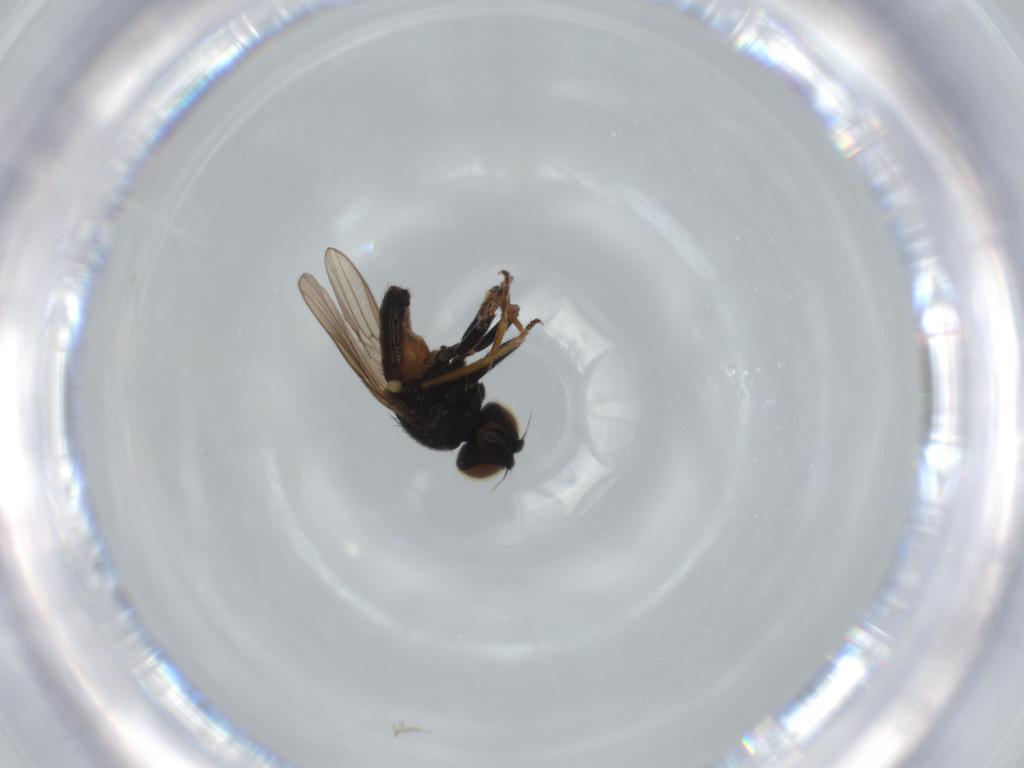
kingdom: Animalia
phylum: Arthropoda
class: Insecta
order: Diptera
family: Chloropidae
